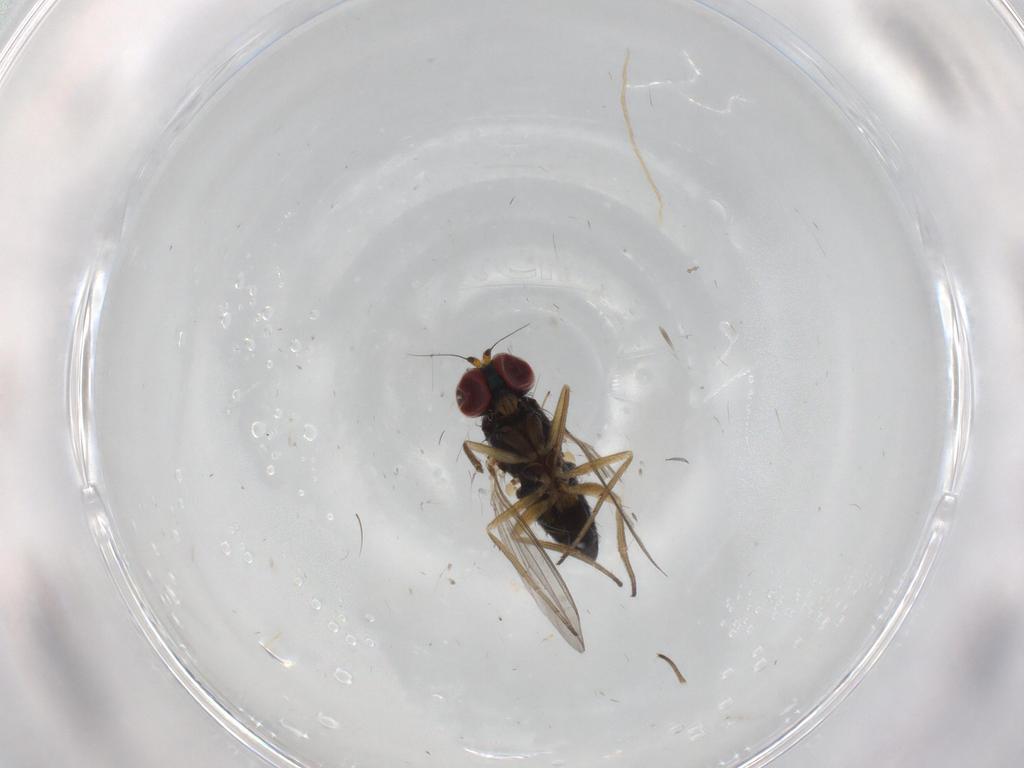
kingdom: Animalia
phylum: Arthropoda
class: Insecta
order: Diptera
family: Dolichopodidae
